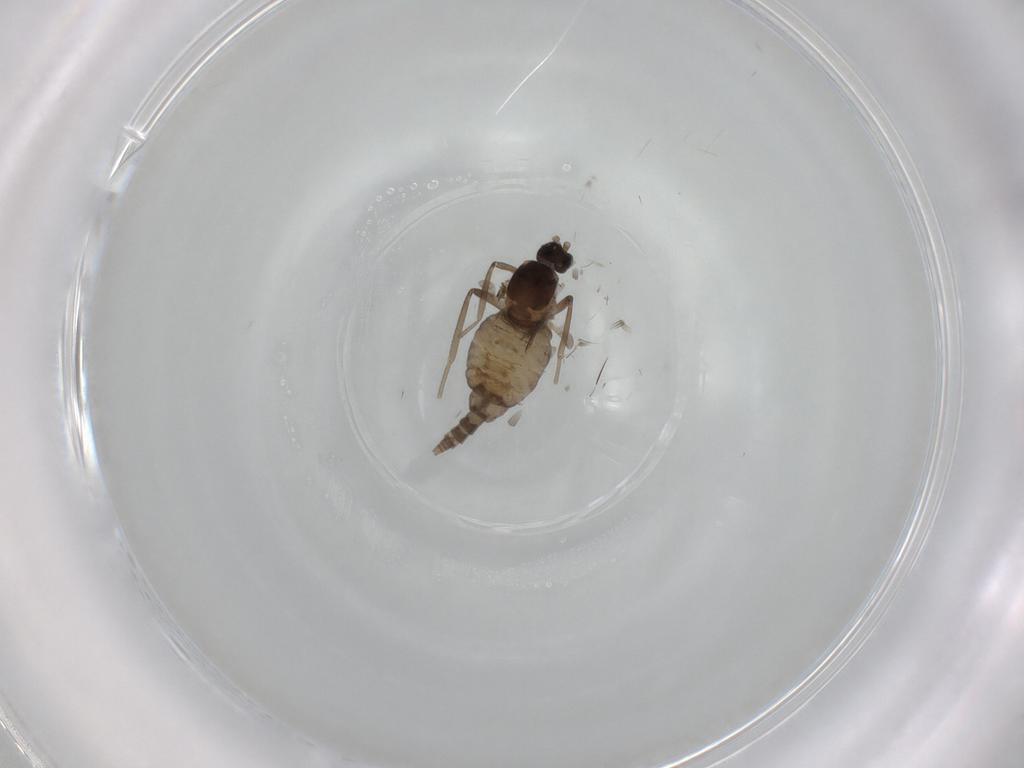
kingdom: Animalia
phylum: Arthropoda
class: Insecta
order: Diptera
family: Cecidomyiidae
